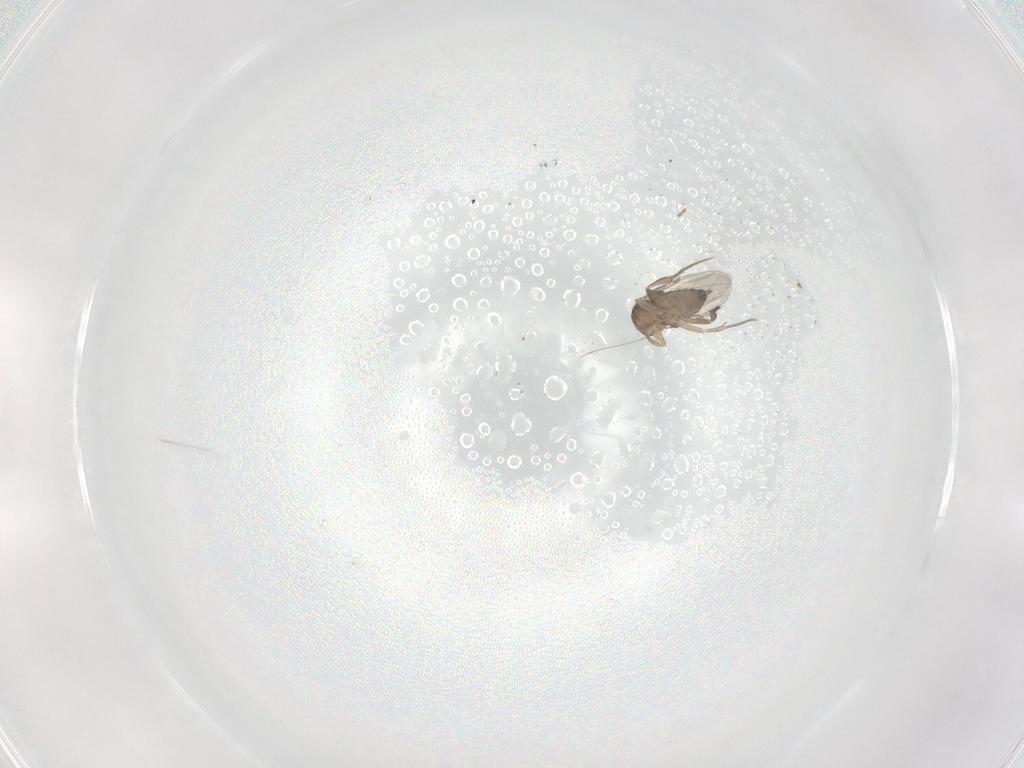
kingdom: Animalia
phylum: Arthropoda
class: Insecta
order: Diptera
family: Phoridae
